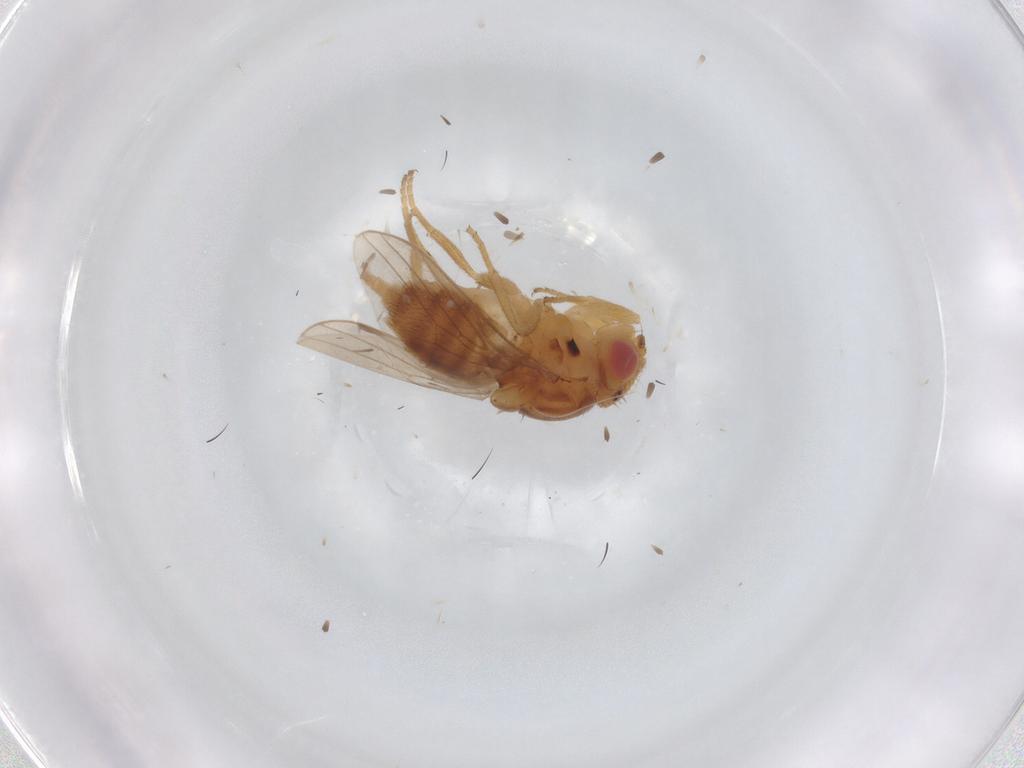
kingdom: Animalia
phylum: Arthropoda
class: Insecta
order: Diptera
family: Chloropidae
